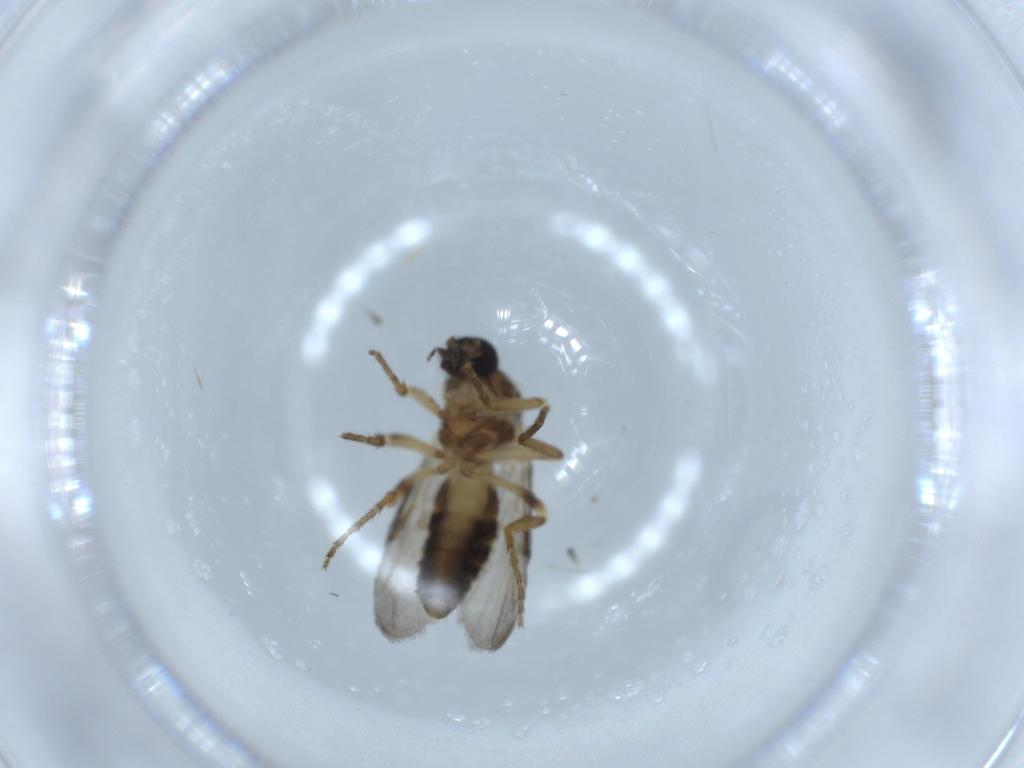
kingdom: Animalia
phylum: Arthropoda
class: Insecta
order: Diptera
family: Ceratopogonidae
